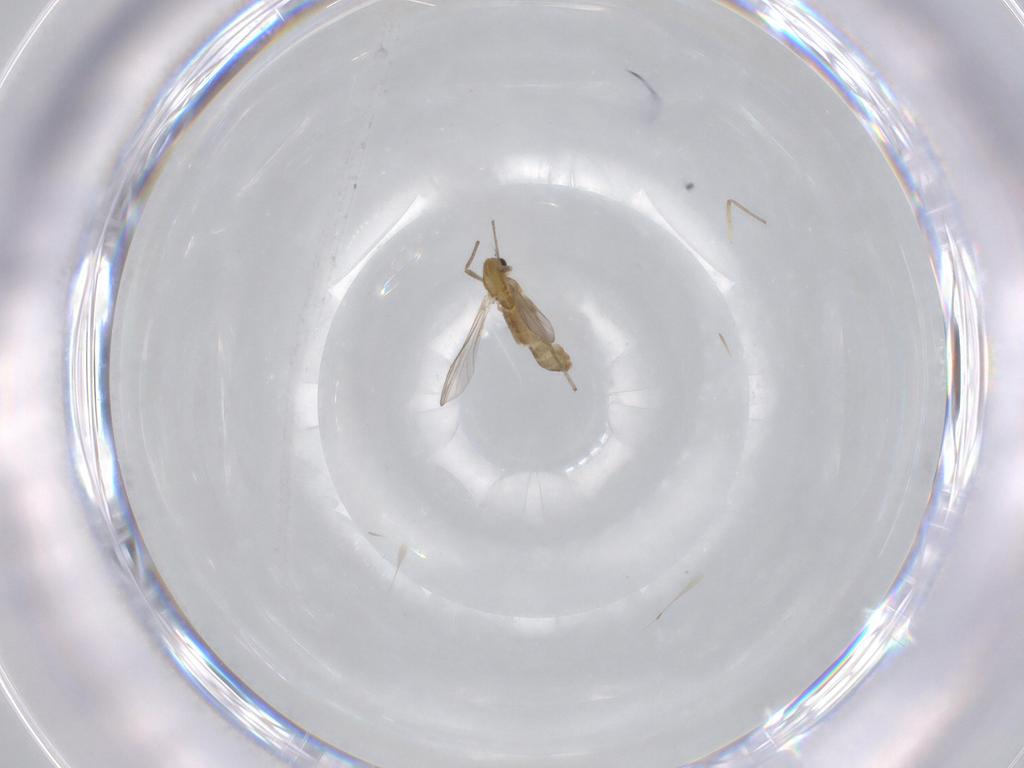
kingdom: Animalia
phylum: Arthropoda
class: Insecta
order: Diptera
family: Chironomidae
